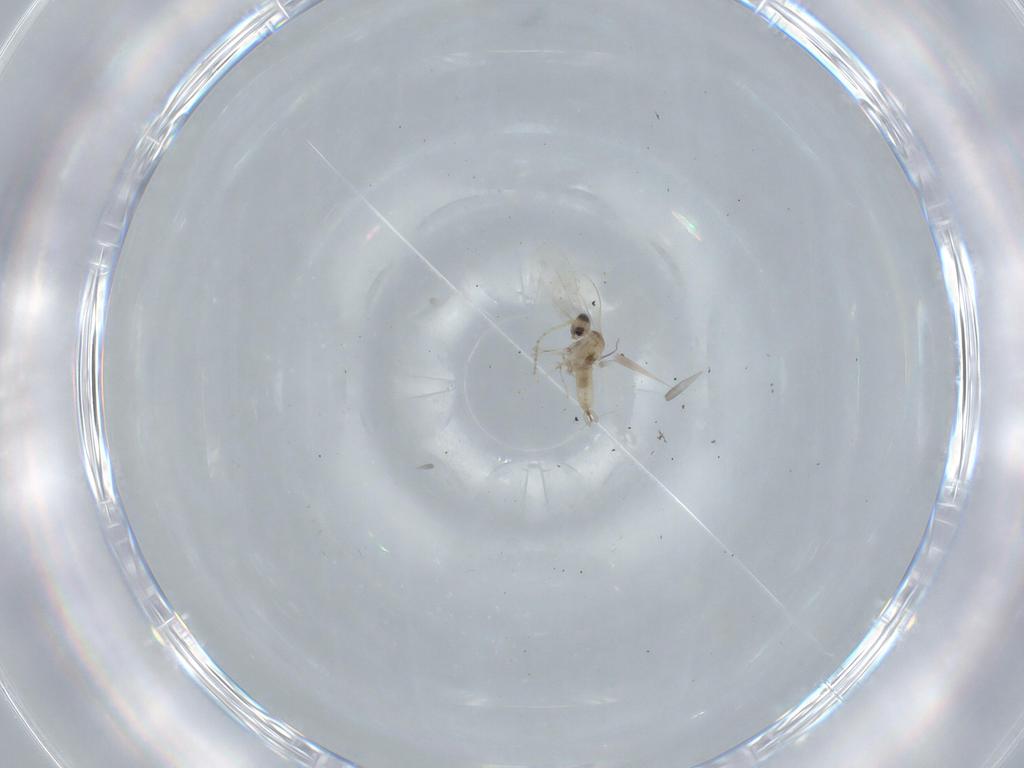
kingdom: Animalia
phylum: Arthropoda
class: Insecta
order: Diptera
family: Cecidomyiidae
